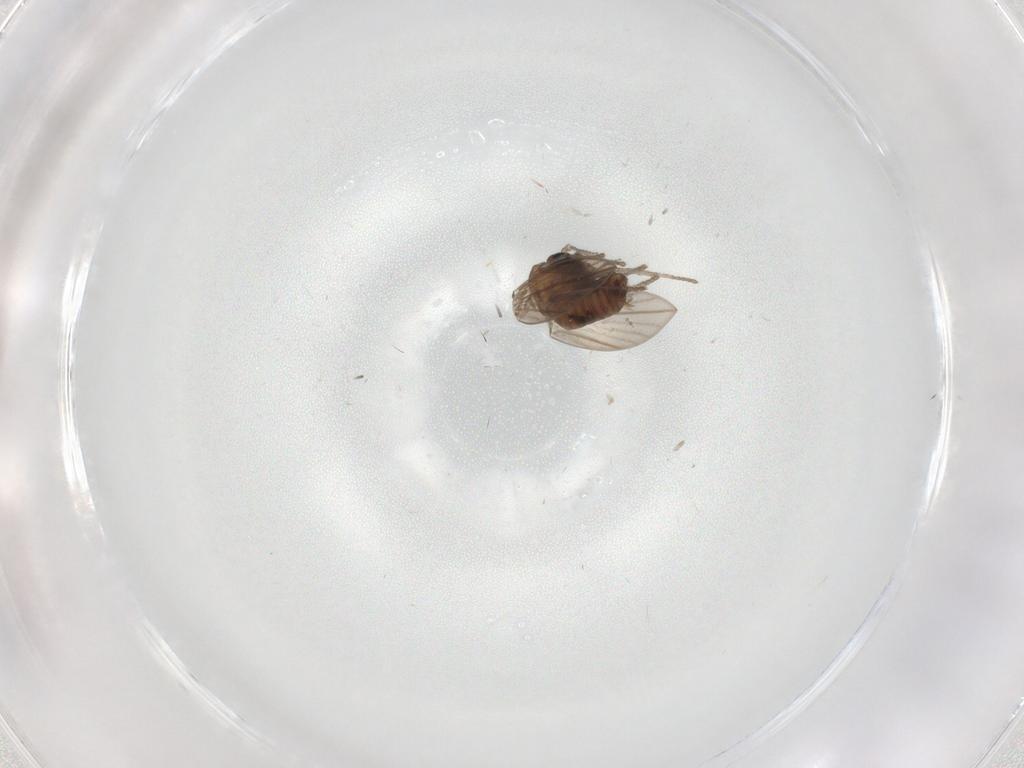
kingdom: Animalia
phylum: Arthropoda
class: Insecta
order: Diptera
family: Psychodidae
